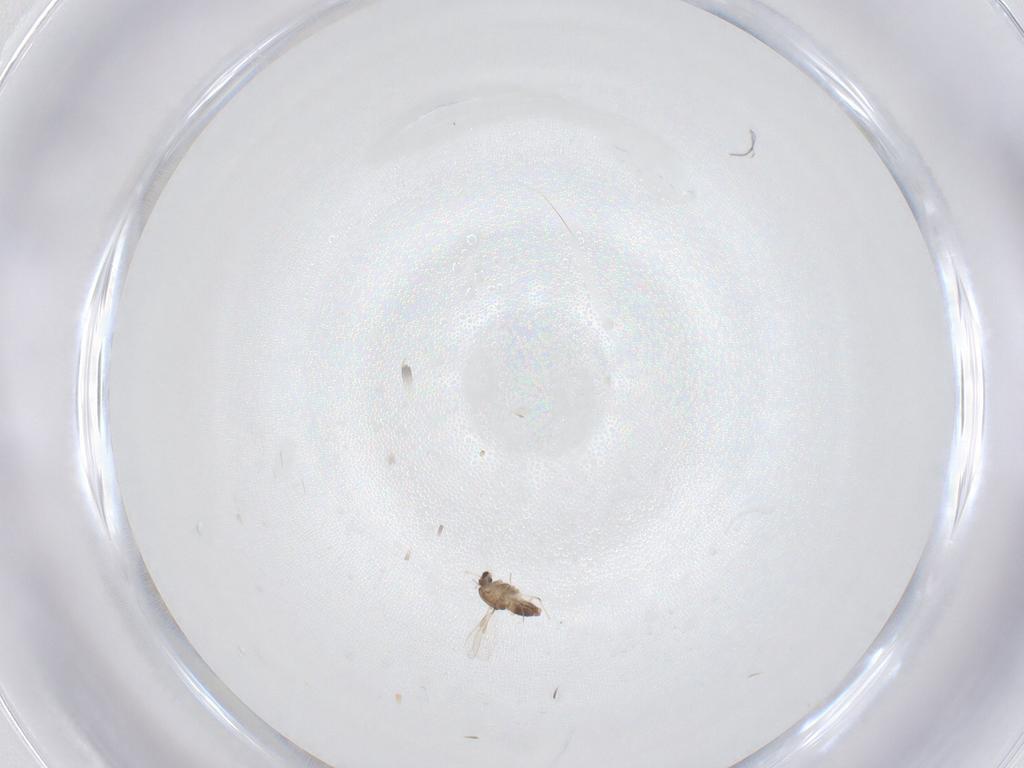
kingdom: Animalia
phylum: Arthropoda
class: Insecta
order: Diptera
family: Chironomidae
